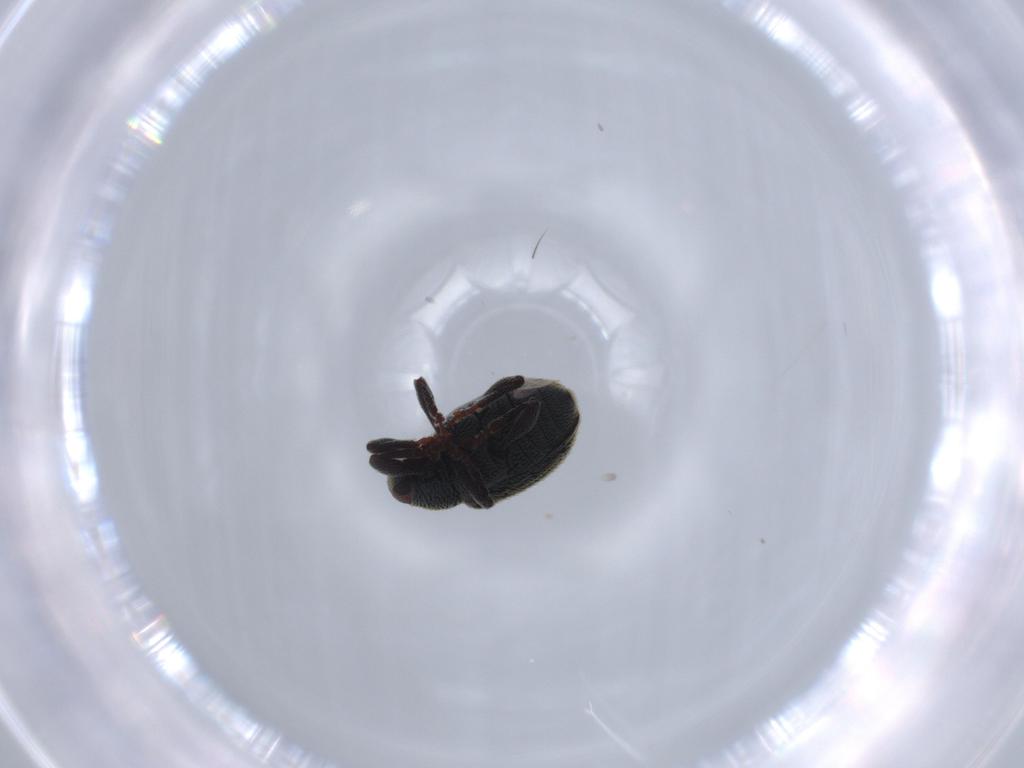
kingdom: Animalia
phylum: Arthropoda
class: Insecta
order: Coleoptera
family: Curculionidae
